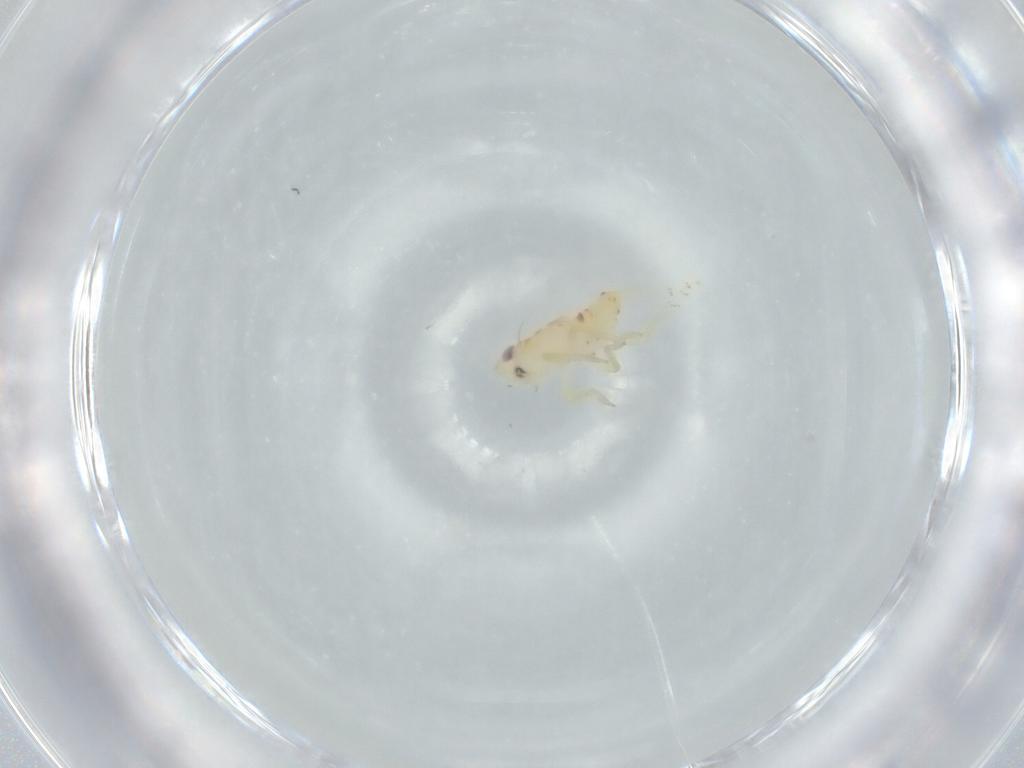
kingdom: Animalia
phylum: Arthropoda
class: Insecta
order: Hemiptera
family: Tropiduchidae
